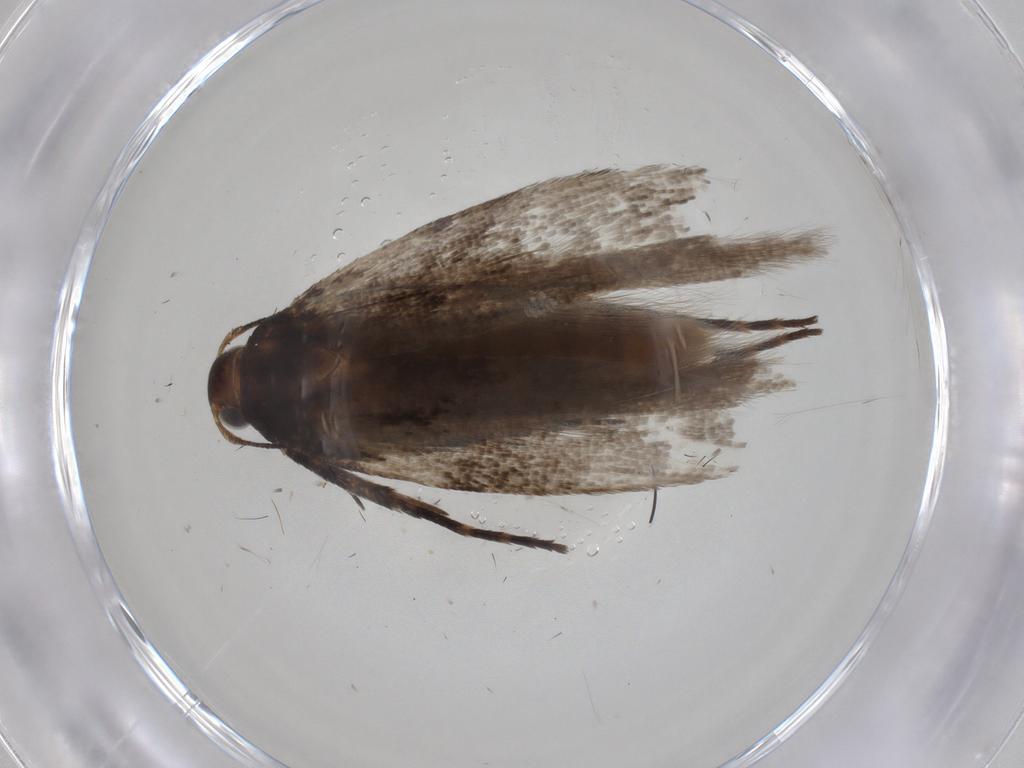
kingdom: Animalia
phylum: Arthropoda
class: Insecta
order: Lepidoptera
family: Gelechiidae
